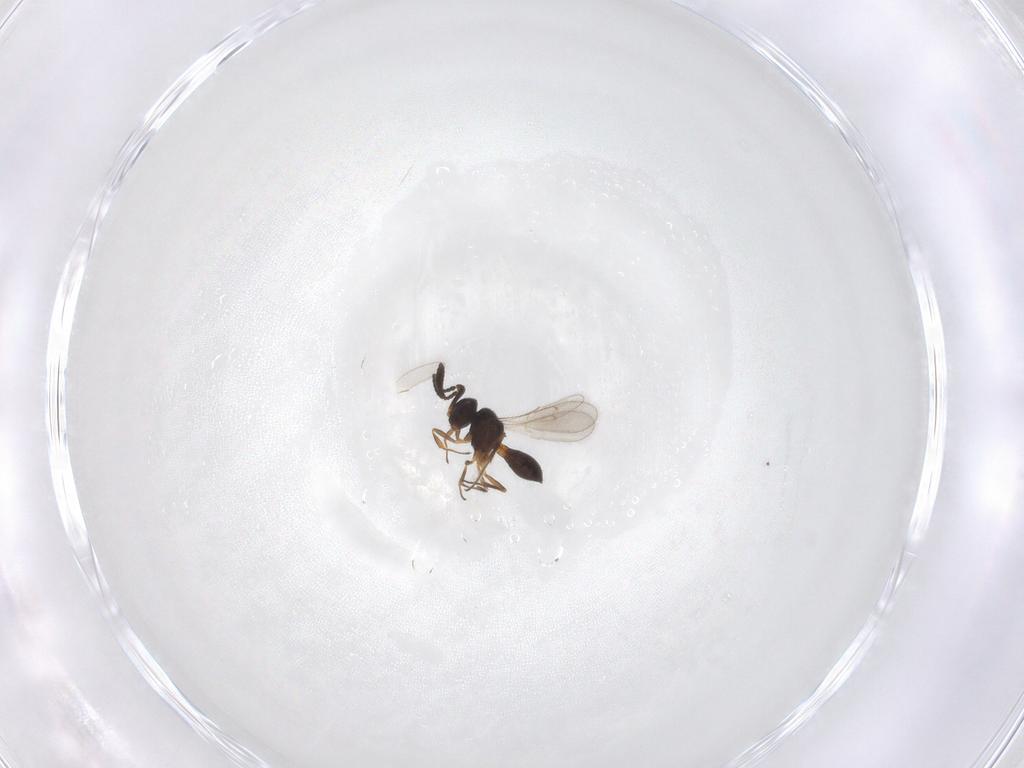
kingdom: Animalia
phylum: Arthropoda
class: Insecta
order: Hymenoptera
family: Scelionidae
